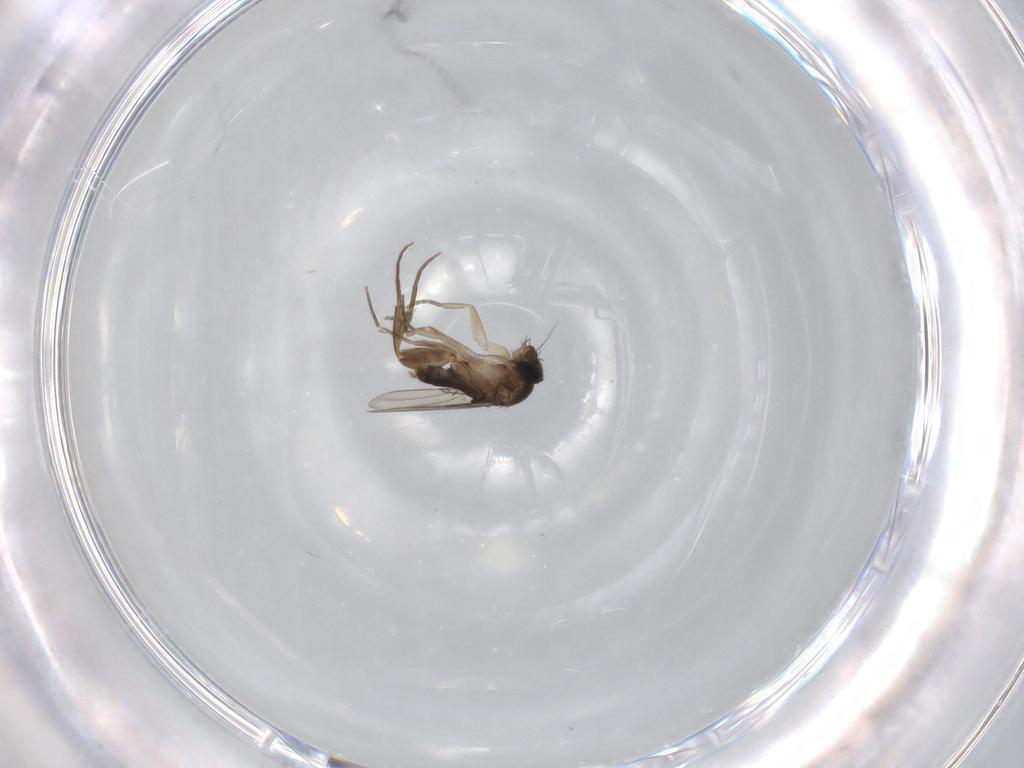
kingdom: Animalia
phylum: Arthropoda
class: Insecta
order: Diptera
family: Phoridae
